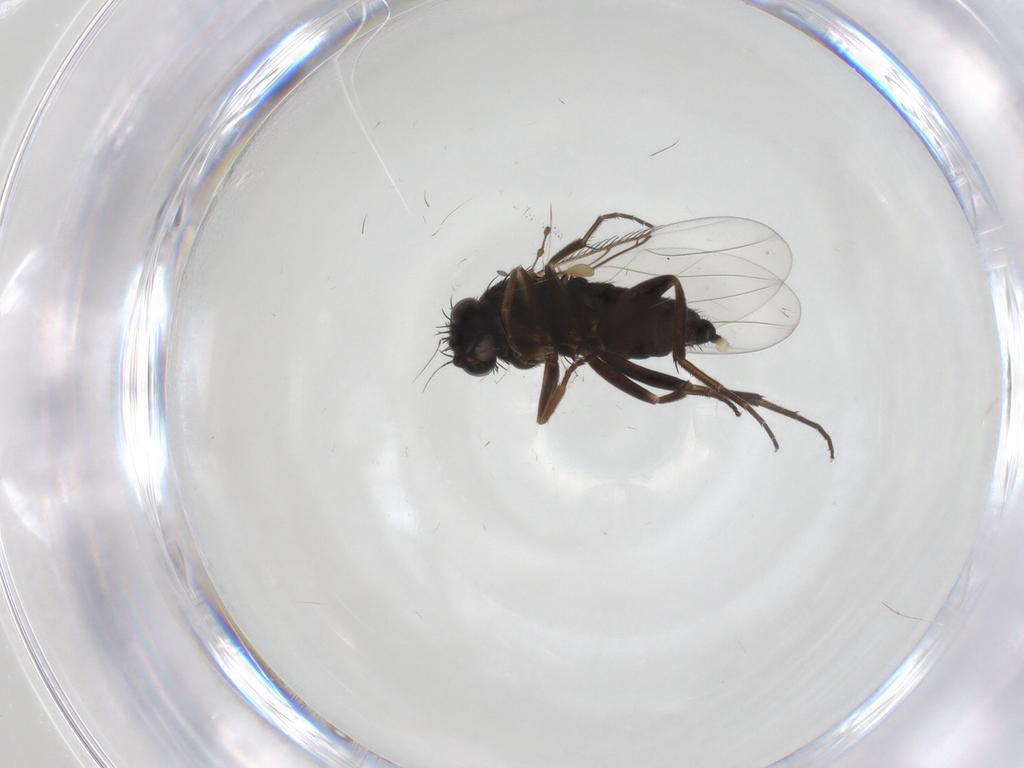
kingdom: Animalia
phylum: Arthropoda
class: Insecta
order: Diptera
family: Phoridae
